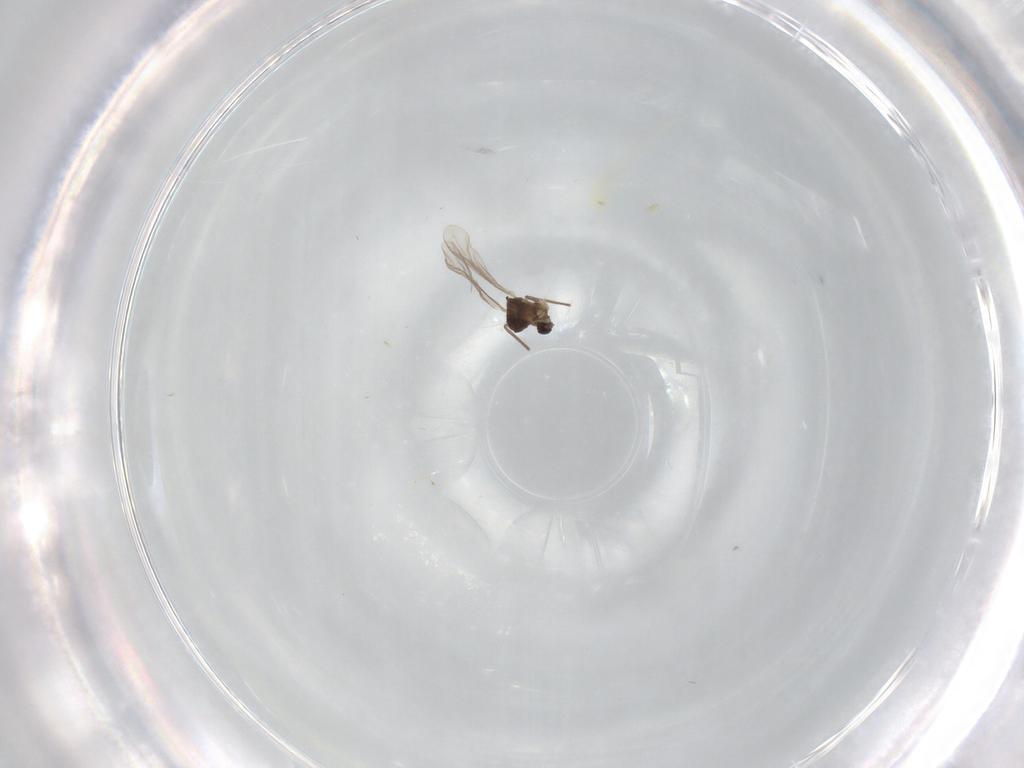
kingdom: Animalia
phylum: Arthropoda
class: Insecta
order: Diptera
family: Chironomidae
